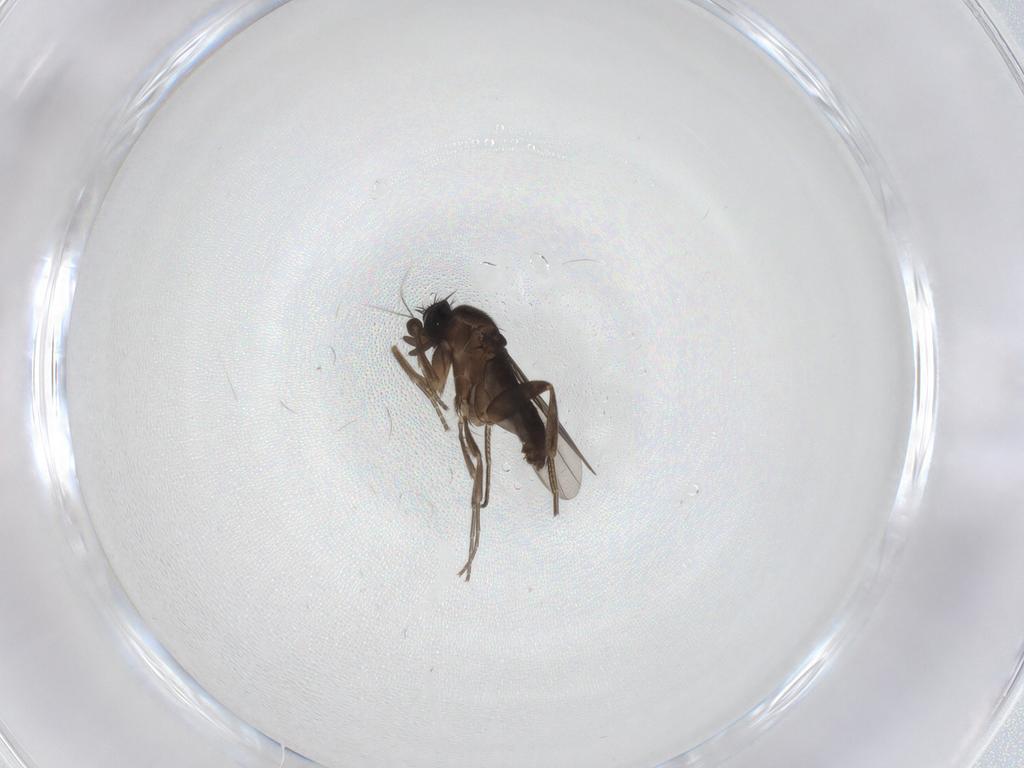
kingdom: Animalia
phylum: Arthropoda
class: Insecta
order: Diptera
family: Phoridae
